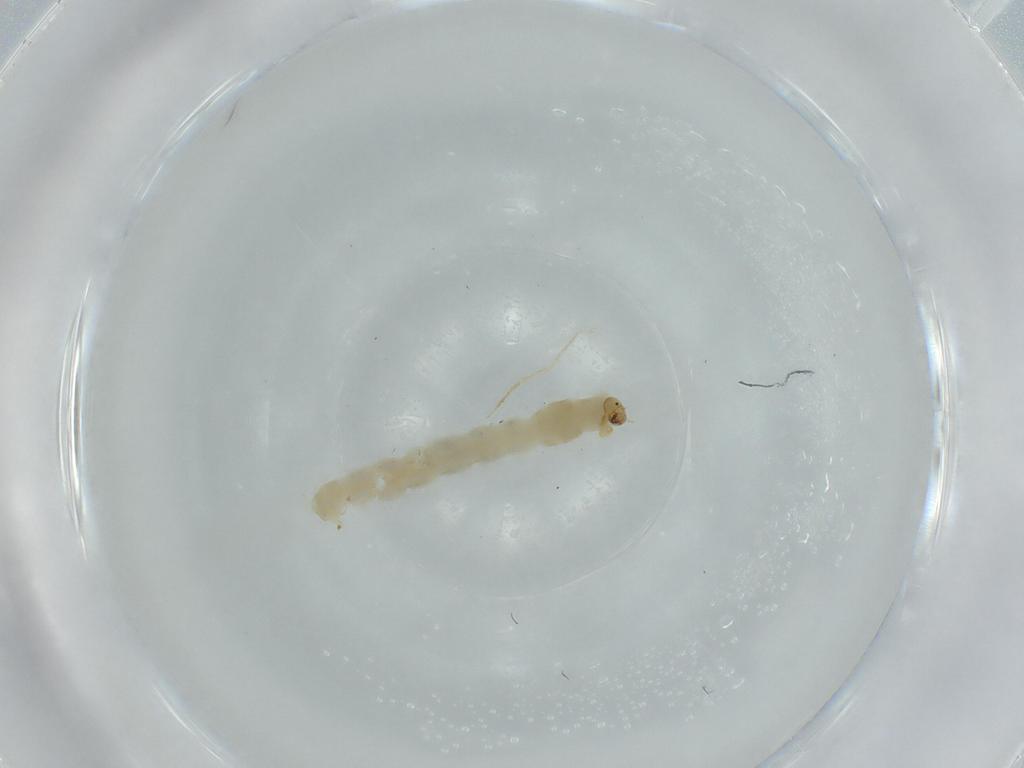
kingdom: Animalia
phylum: Arthropoda
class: Insecta
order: Diptera
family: Chironomidae
